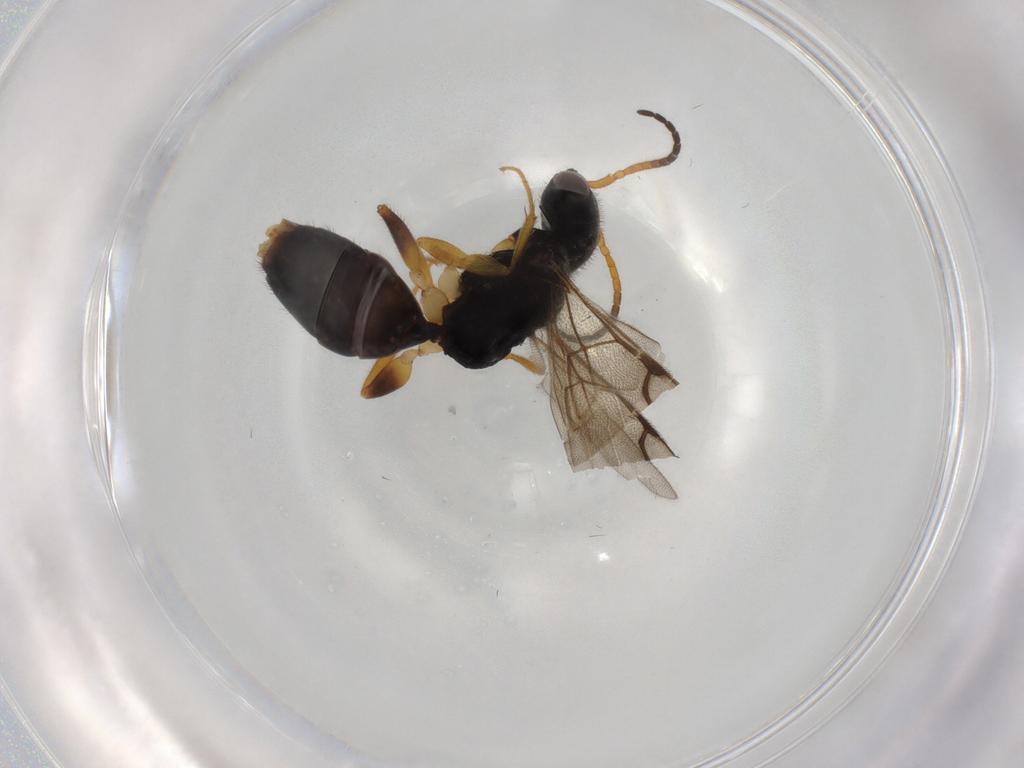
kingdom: Animalia
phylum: Arthropoda
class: Insecta
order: Hymenoptera
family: Bethylidae
